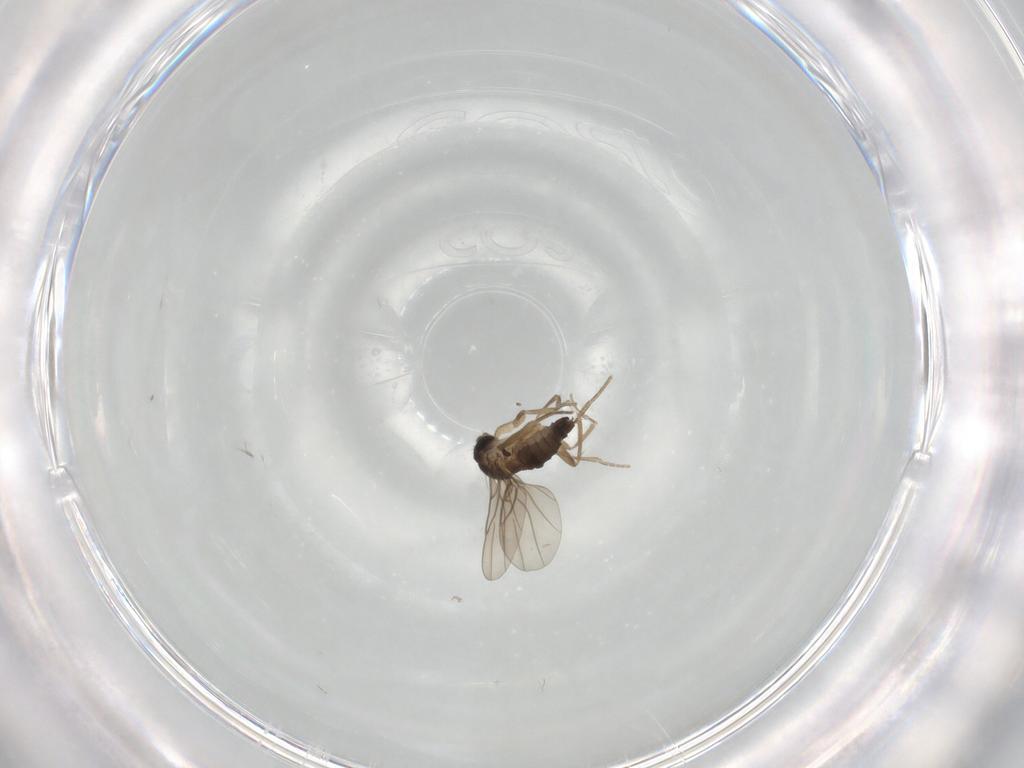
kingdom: Animalia
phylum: Arthropoda
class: Insecta
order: Diptera
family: Phoridae
